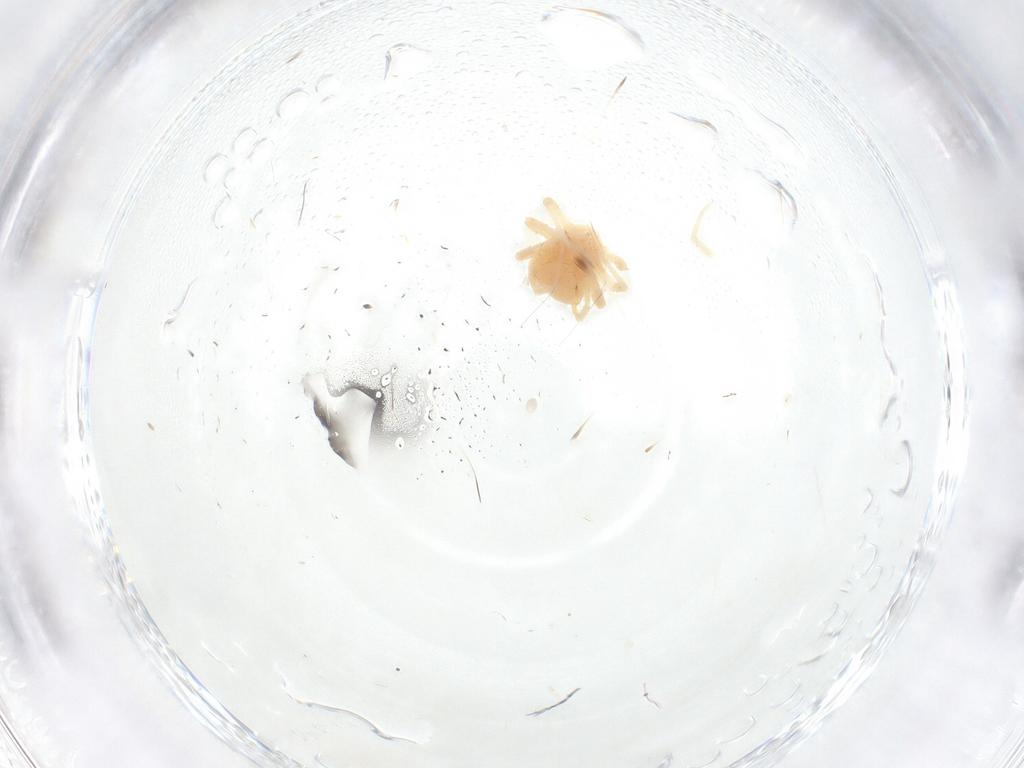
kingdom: Animalia
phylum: Arthropoda
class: Arachnida
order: Trombidiformes
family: Anystidae
